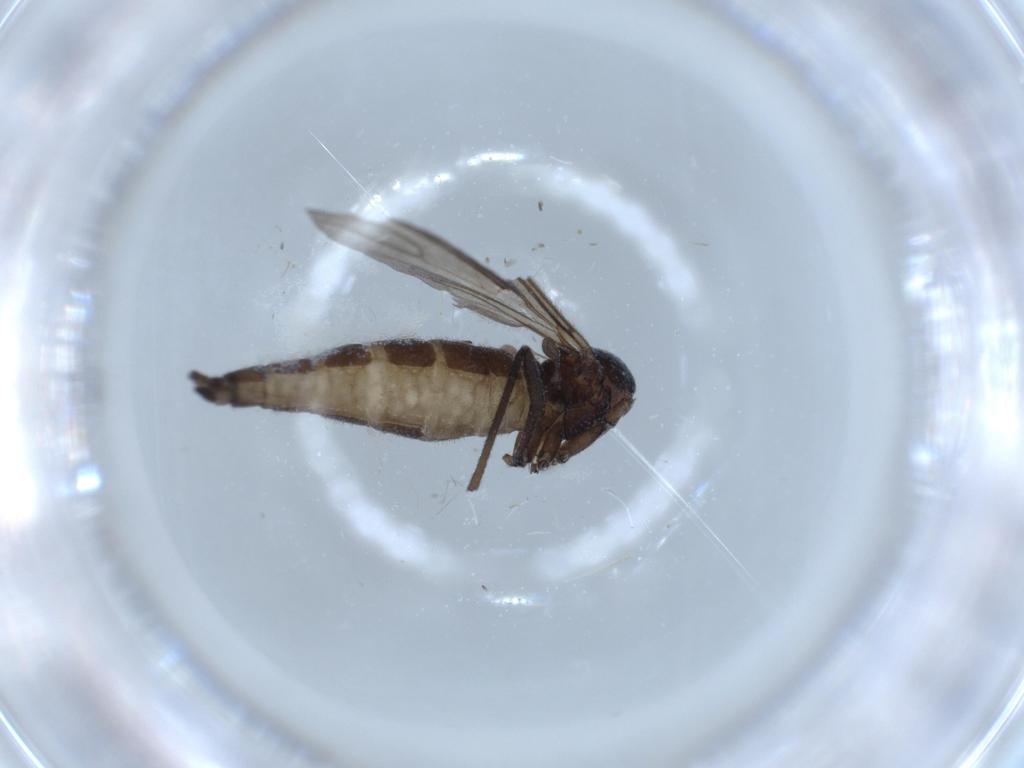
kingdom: Animalia
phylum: Arthropoda
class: Insecta
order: Diptera
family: Sciaridae
